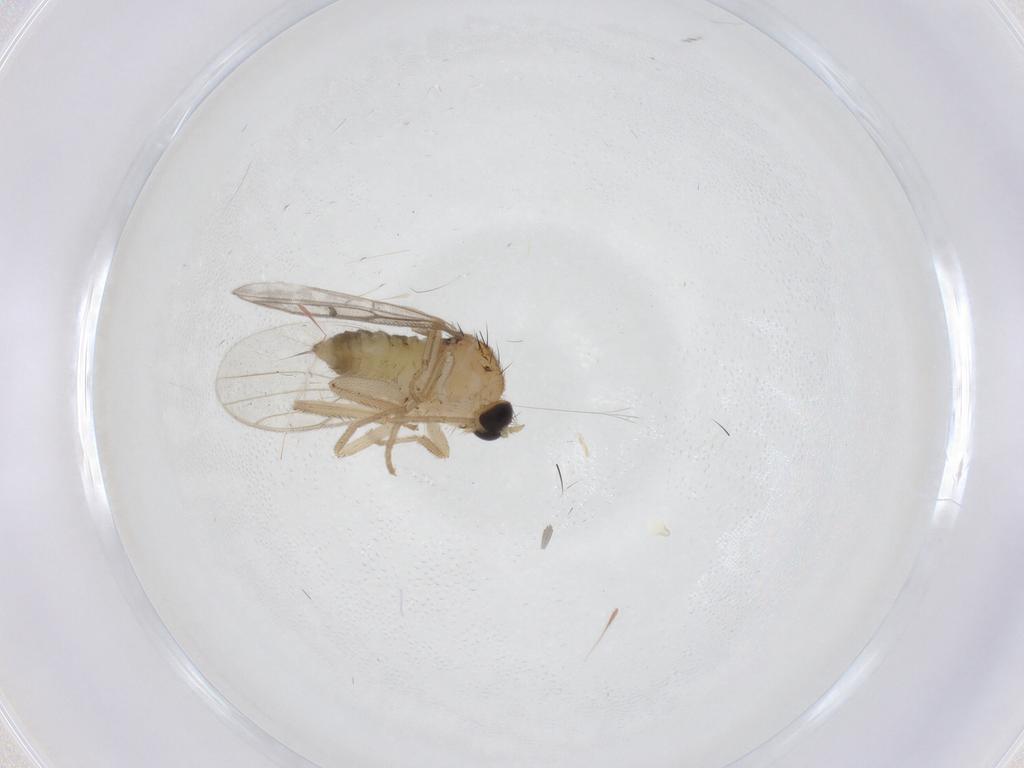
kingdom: Animalia
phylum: Arthropoda
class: Insecta
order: Diptera
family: Hybotidae
